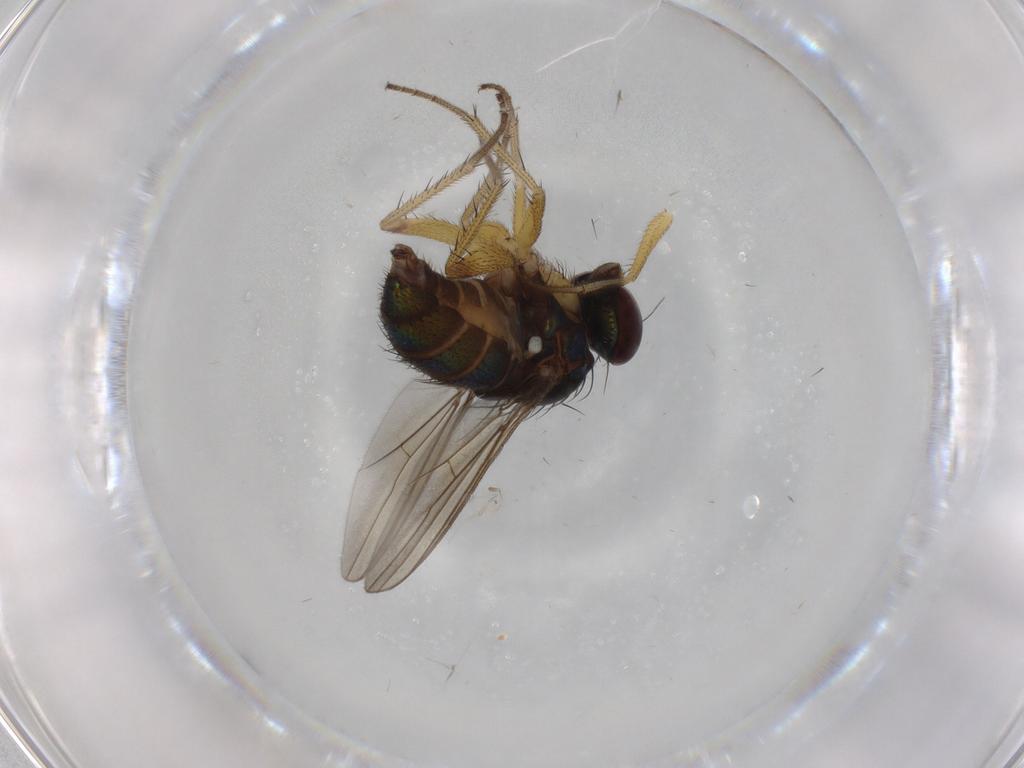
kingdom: Animalia
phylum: Arthropoda
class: Insecta
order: Diptera
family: Dolichopodidae
